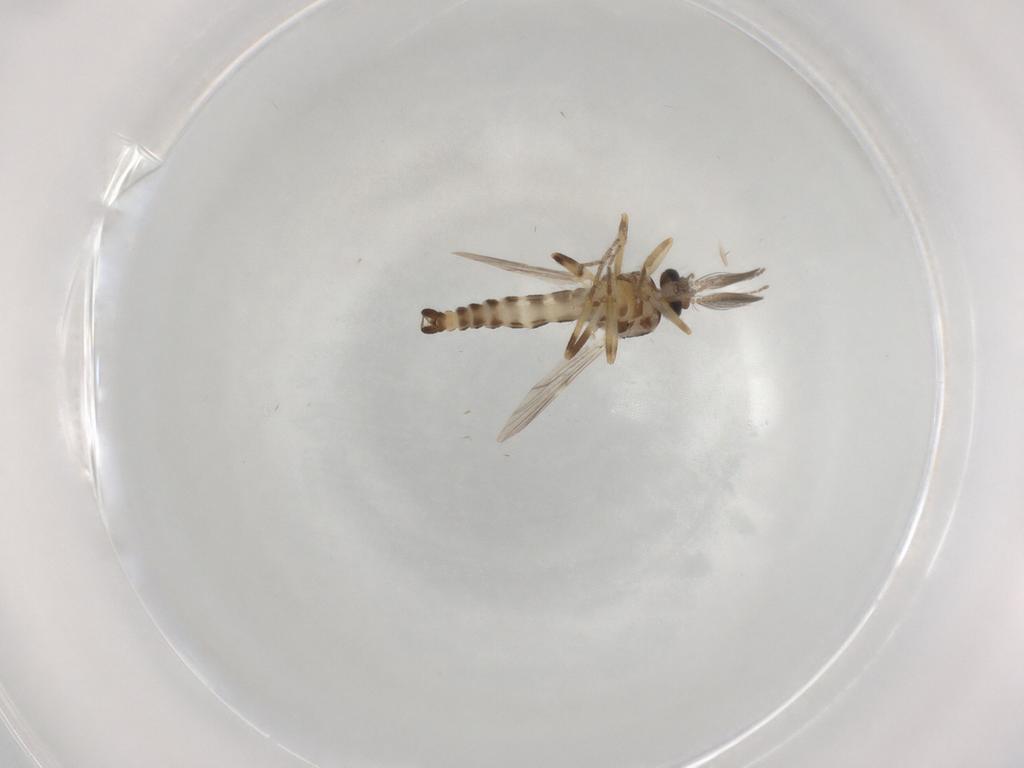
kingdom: Animalia
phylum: Arthropoda
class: Insecta
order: Diptera
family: Ceratopogonidae
